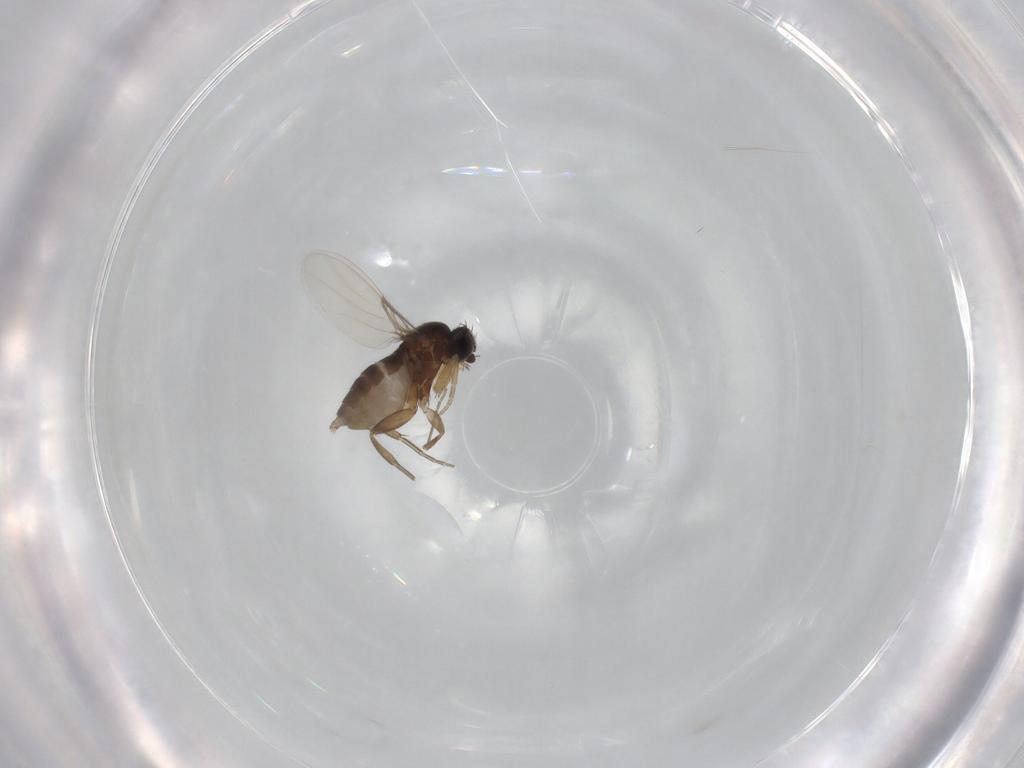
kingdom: Animalia
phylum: Arthropoda
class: Insecta
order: Diptera
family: Phoridae
